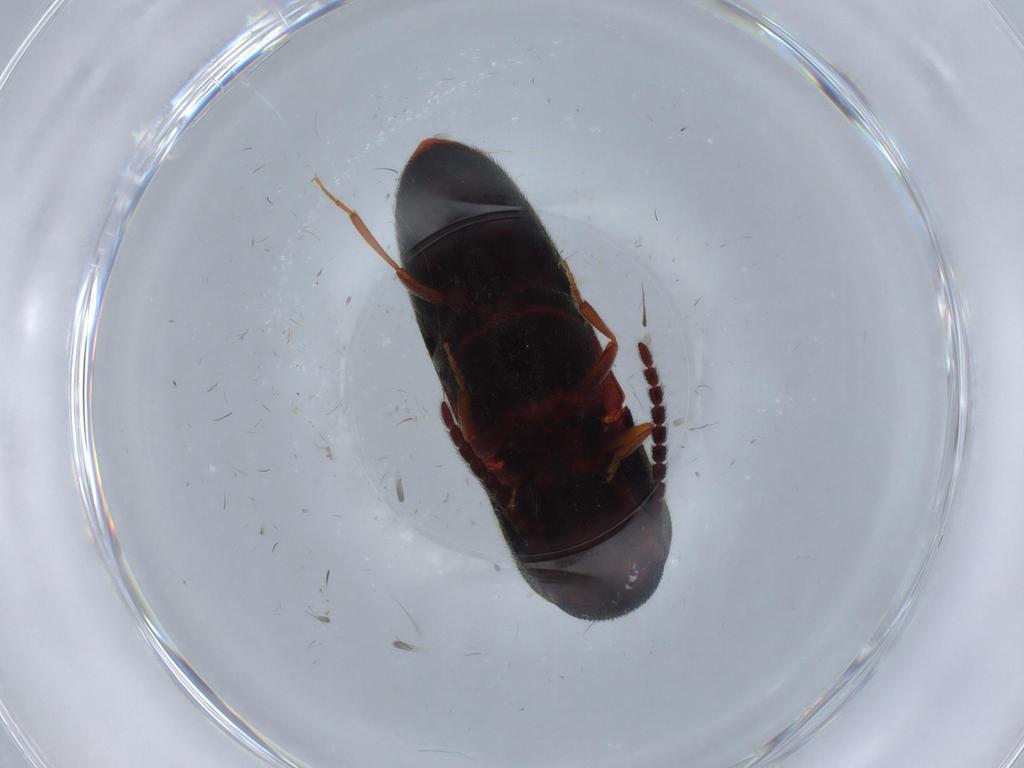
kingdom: Animalia
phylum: Arthropoda
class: Insecta
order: Coleoptera
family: Eucnemidae
